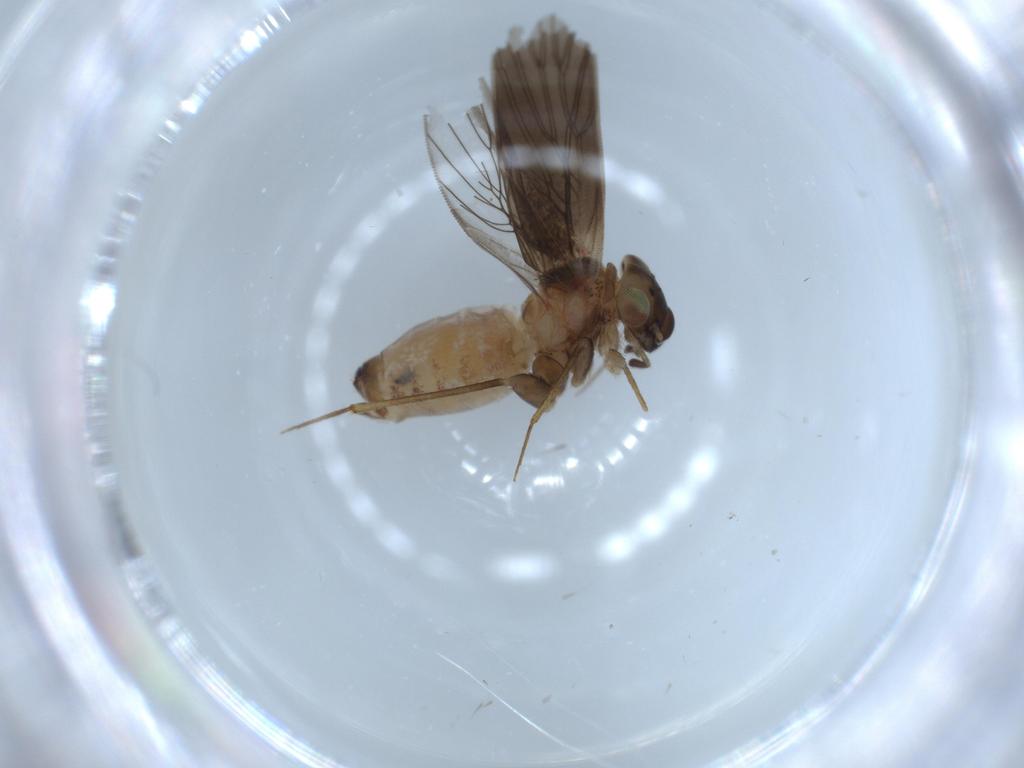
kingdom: Animalia
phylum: Arthropoda
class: Insecta
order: Psocodea
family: Lepidopsocidae
